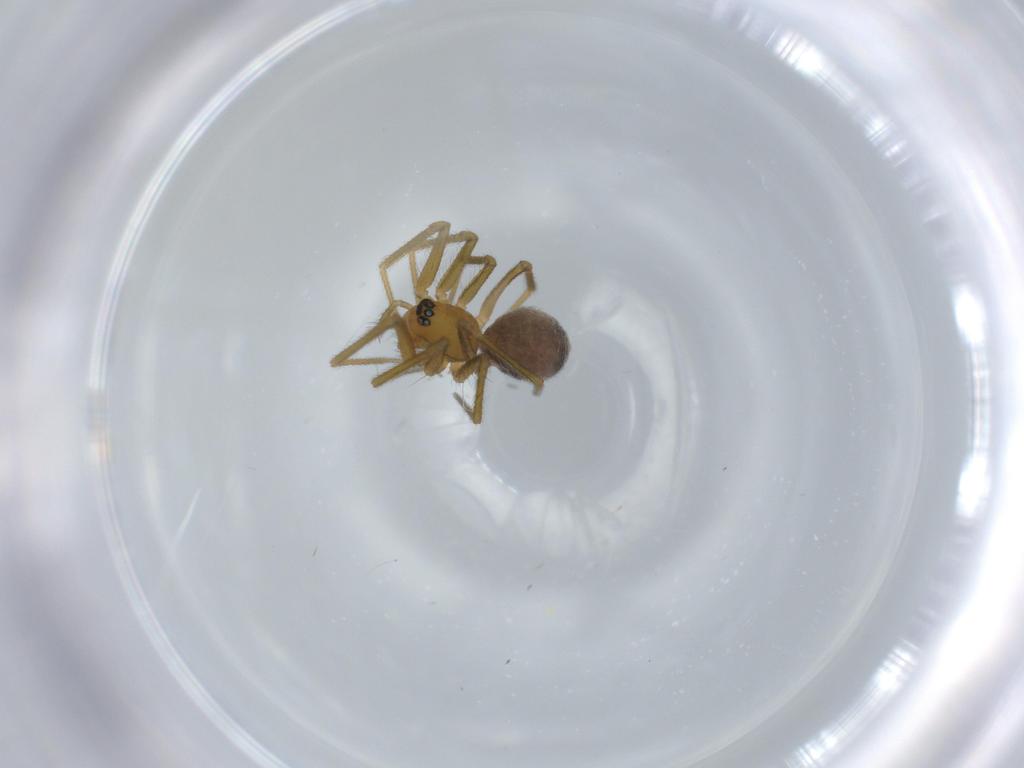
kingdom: Animalia
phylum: Arthropoda
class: Arachnida
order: Araneae
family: Linyphiidae
